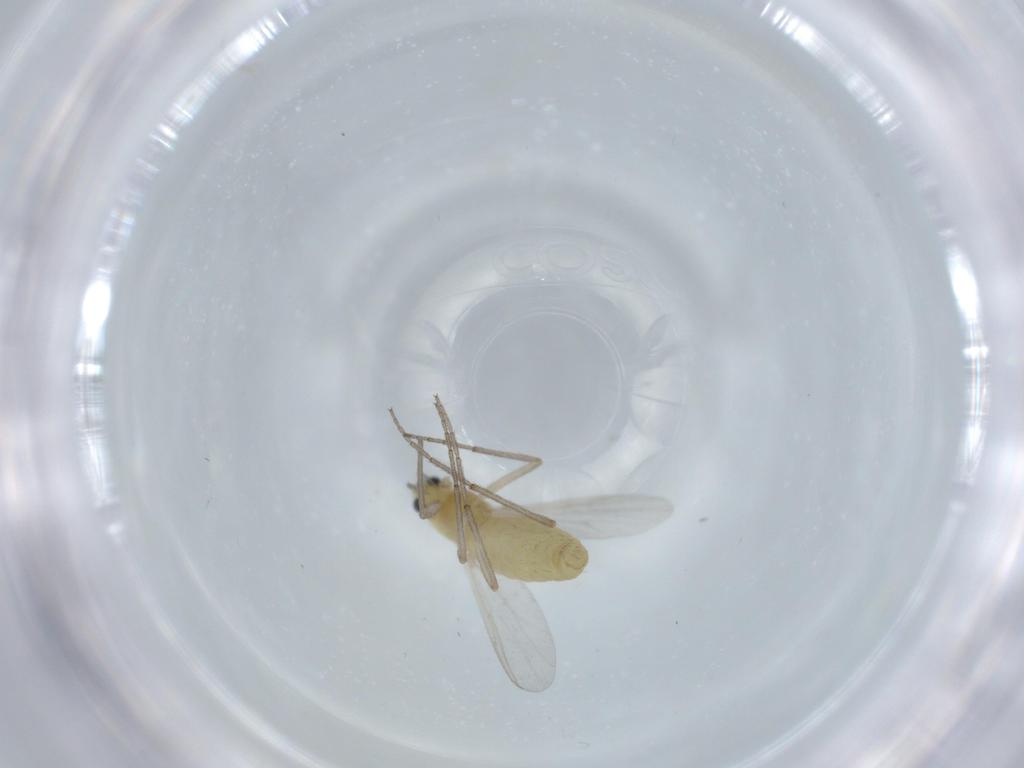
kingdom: Animalia
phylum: Arthropoda
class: Insecta
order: Diptera
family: Chironomidae
